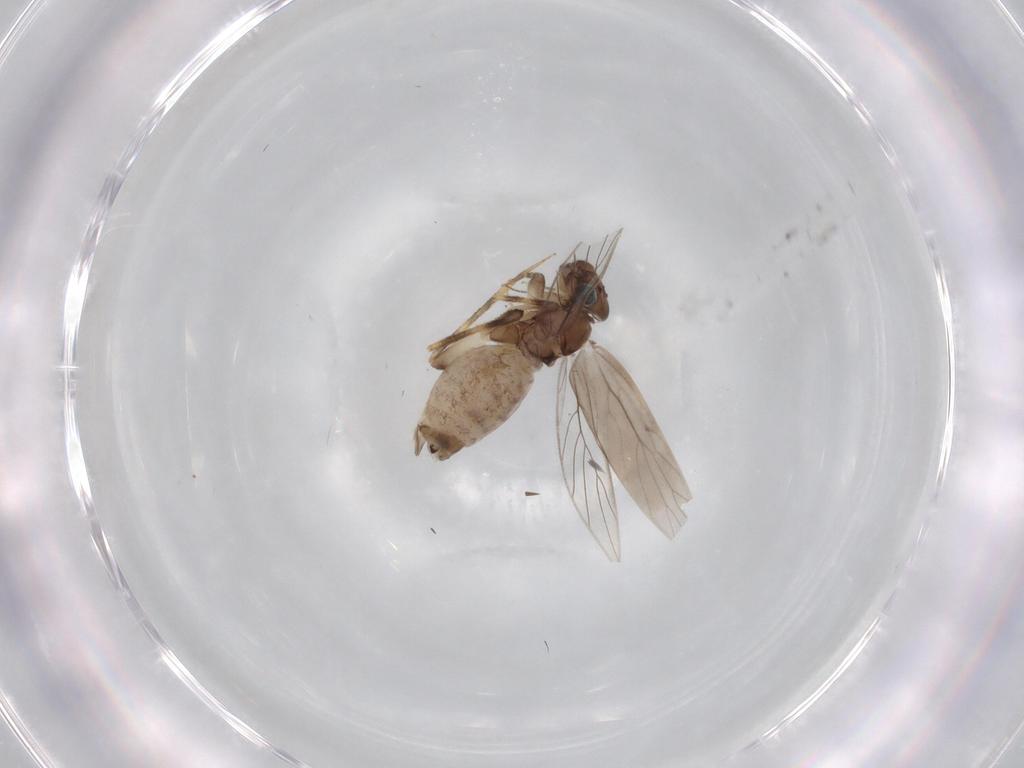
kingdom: Animalia
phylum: Arthropoda
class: Insecta
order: Psocodea
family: Lepidopsocidae
